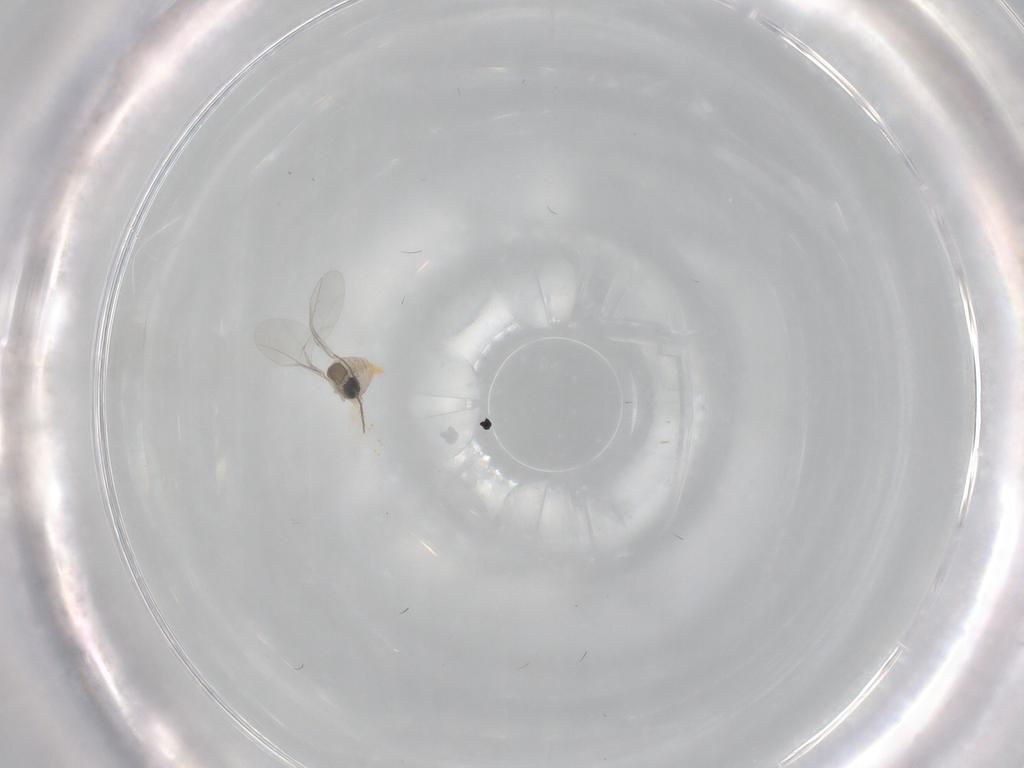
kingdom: Animalia
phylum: Arthropoda
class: Insecta
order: Diptera
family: Cecidomyiidae
